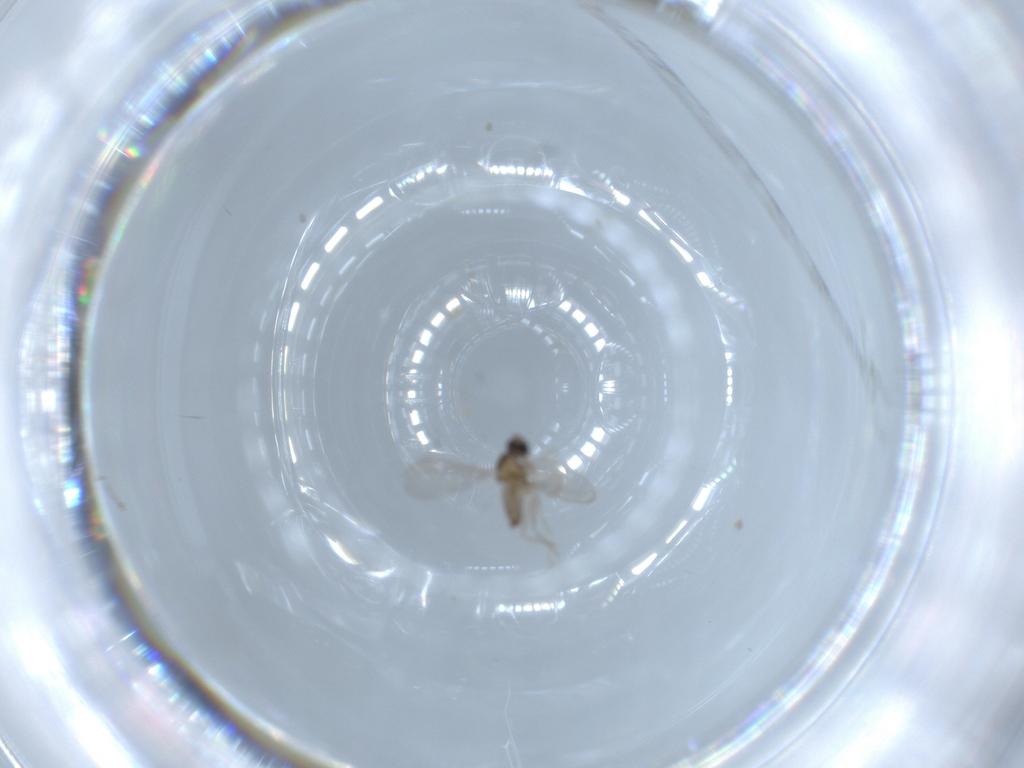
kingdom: Animalia
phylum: Arthropoda
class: Insecta
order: Diptera
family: Cecidomyiidae
